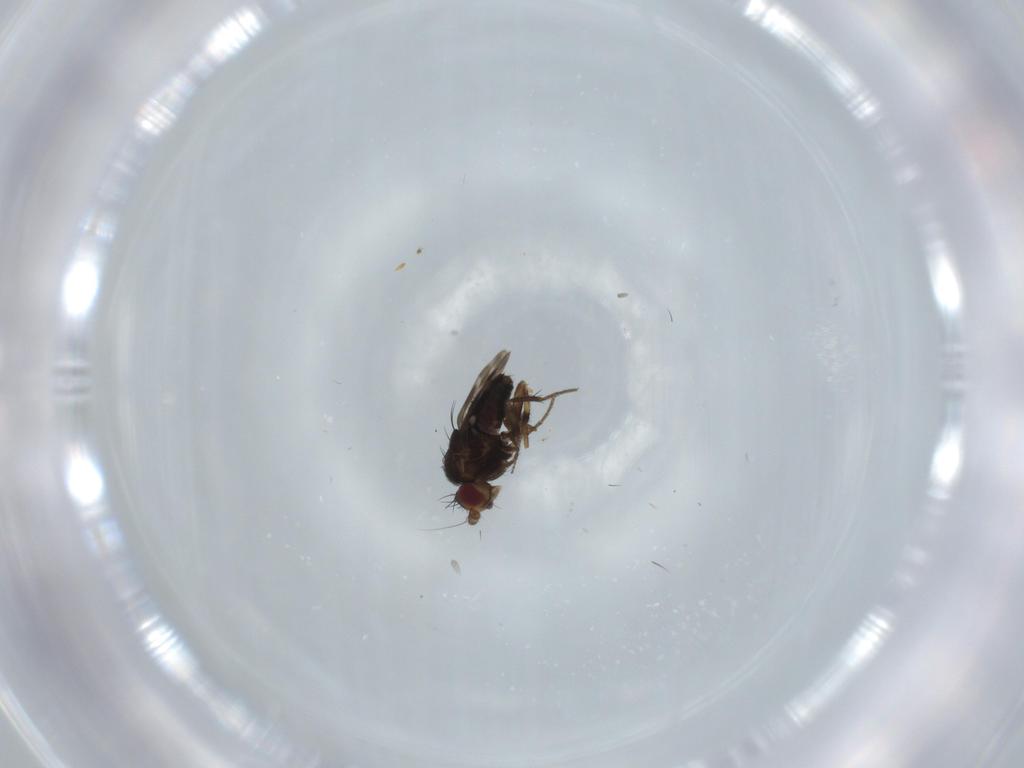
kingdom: Animalia
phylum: Arthropoda
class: Insecta
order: Diptera
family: Sphaeroceridae
